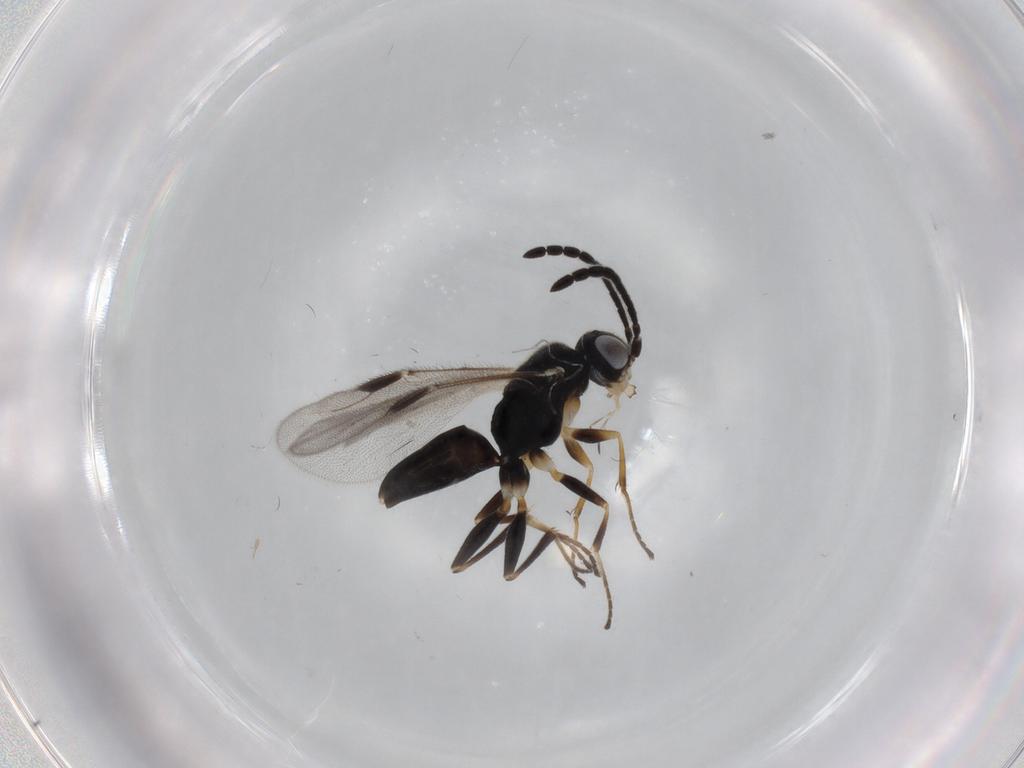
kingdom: Animalia
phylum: Arthropoda
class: Insecta
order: Hymenoptera
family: Dryinidae
